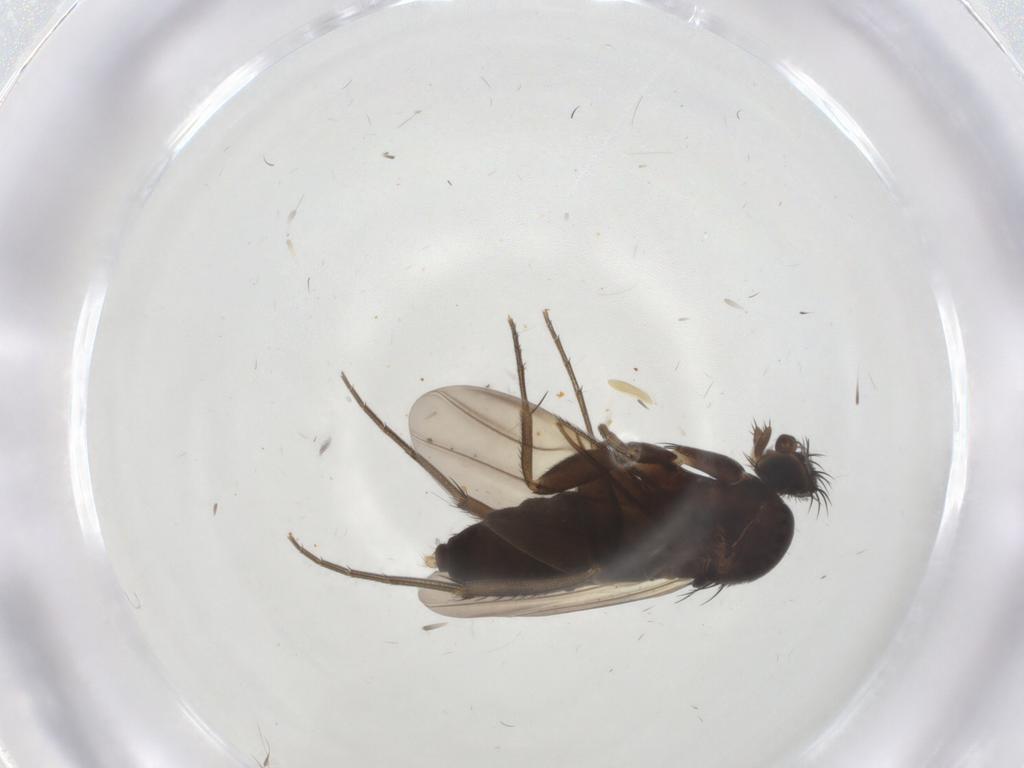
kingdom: Animalia
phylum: Arthropoda
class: Insecta
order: Diptera
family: Phoridae
